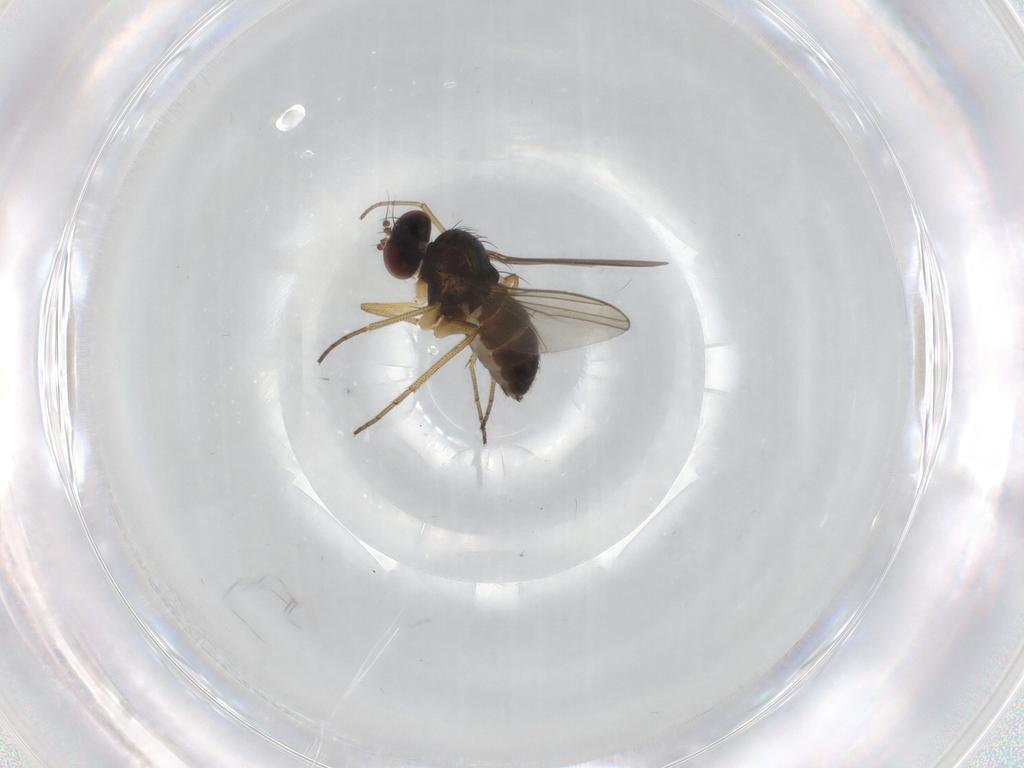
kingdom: Animalia
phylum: Arthropoda
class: Insecta
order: Diptera
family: Dolichopodidae
